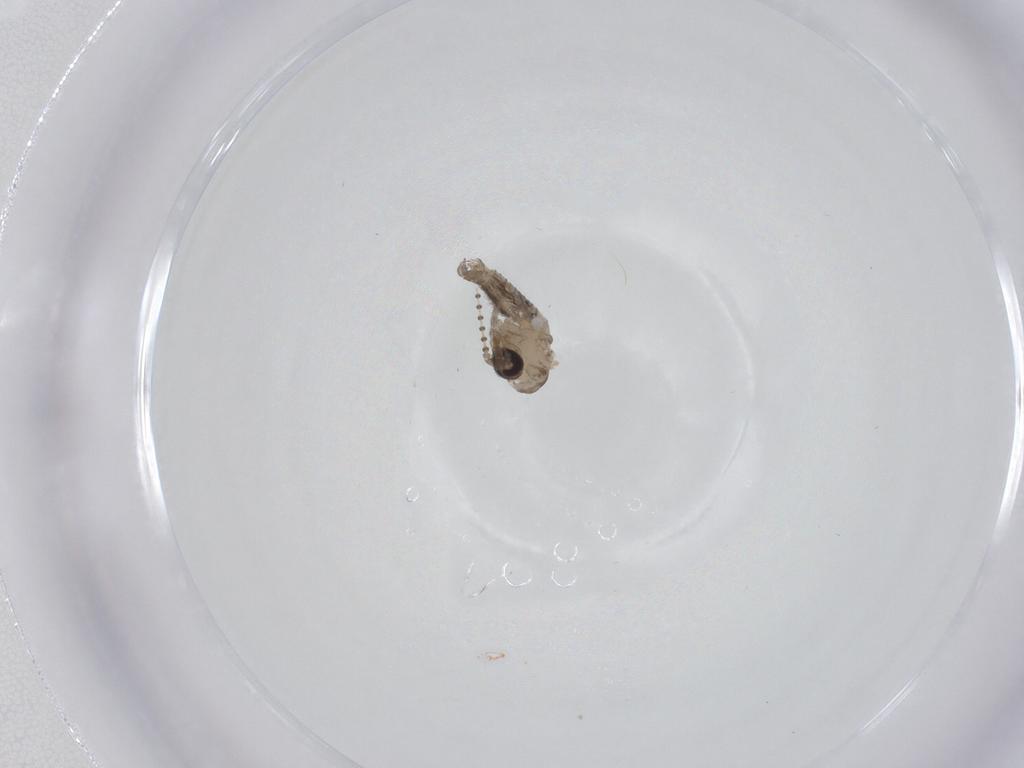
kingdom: Animalia
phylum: Arthropoda
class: Insecta
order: Diptera
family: Psychodidae
